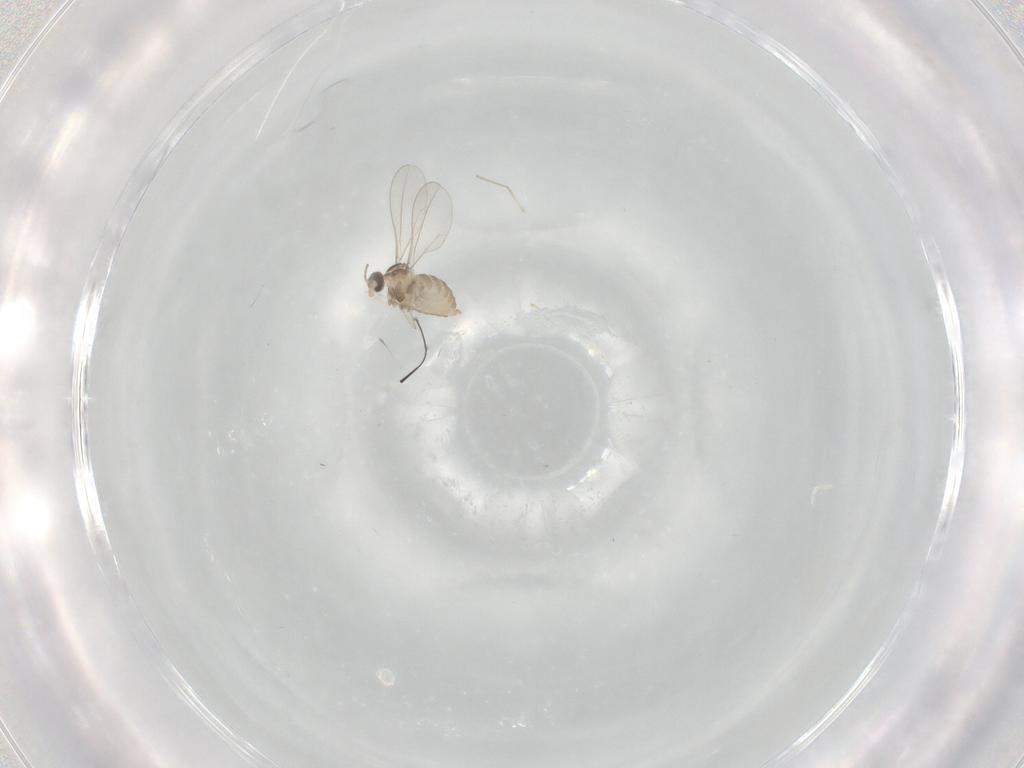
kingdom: Animalia
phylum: Arthropoda
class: Insecta
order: Diptera
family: Cecidomyiidae
